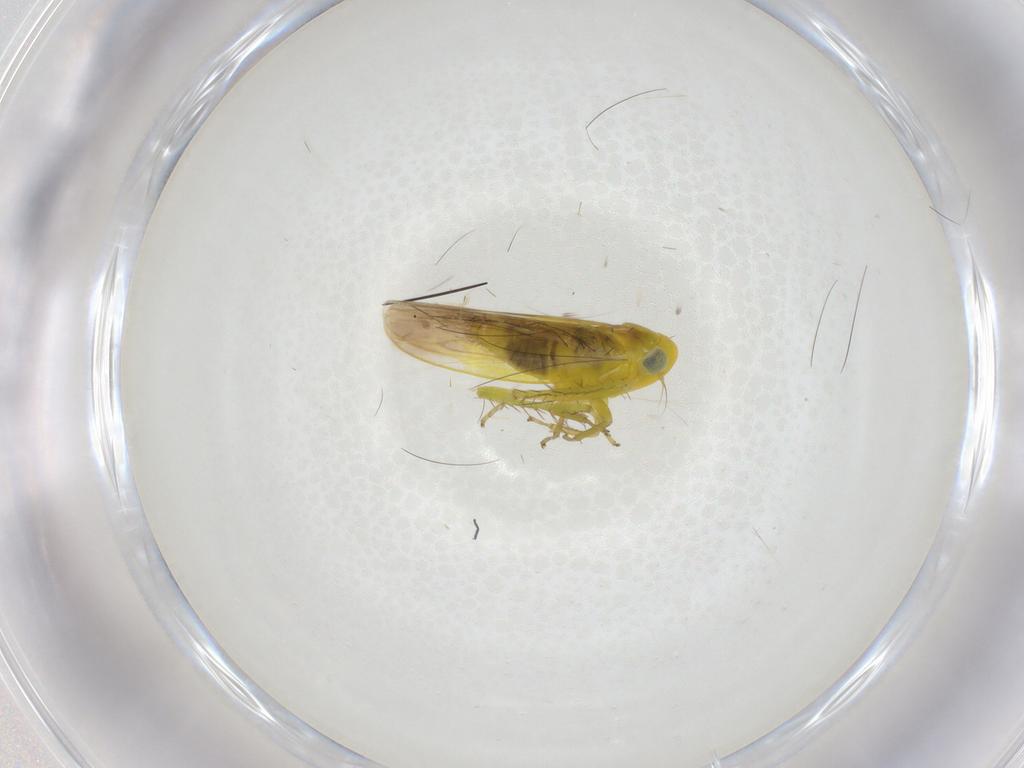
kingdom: Animalia
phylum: Arthropoda
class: Insecta
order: Hemiptera
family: Cicadellidae
